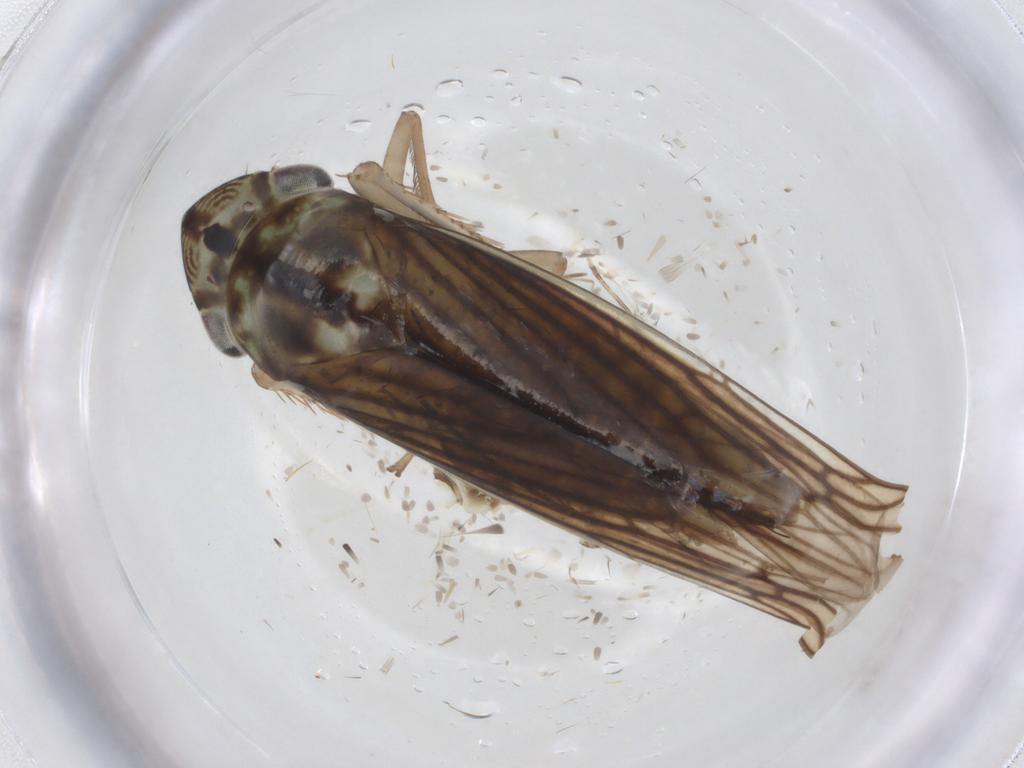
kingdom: Animalia
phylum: Arthropoda
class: Insecta
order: Hemiptera
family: Cicadellidae
